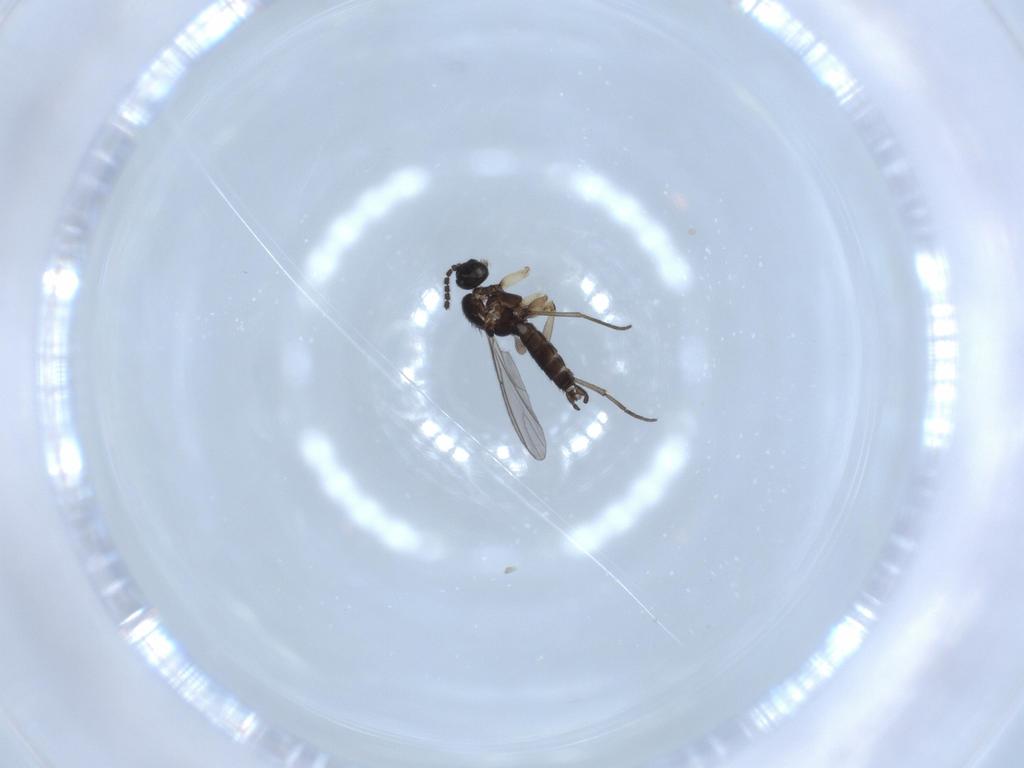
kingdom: Animalia
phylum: Arthropoda
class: Insecta
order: Diptera
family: Sciaridae
